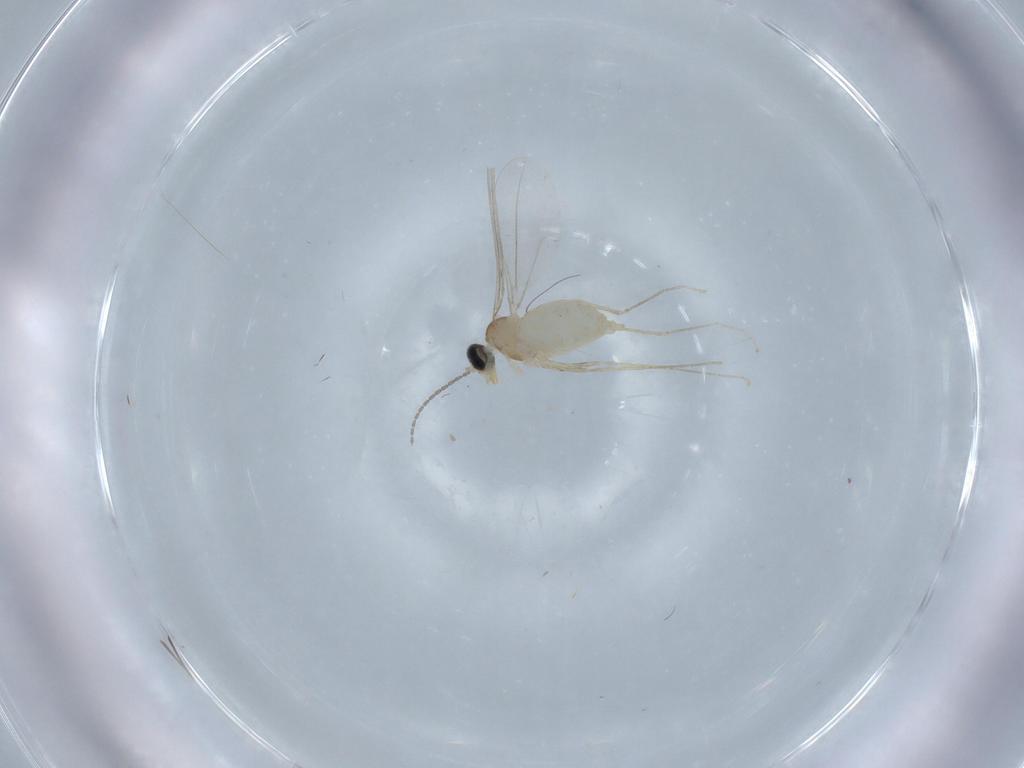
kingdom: Animalia
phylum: Arthropoda
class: Insecta
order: Diptera
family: Cecidomyiidae
